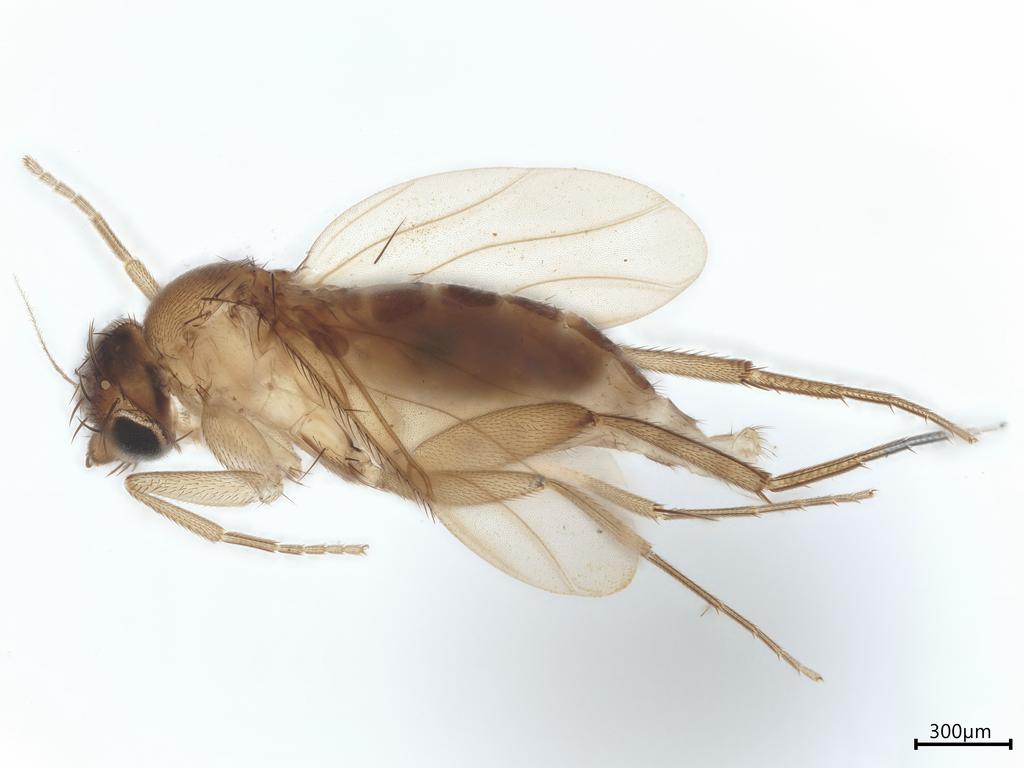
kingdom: Animalia
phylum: Arthropoda
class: Insecta
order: Diptera
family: Phoridae
